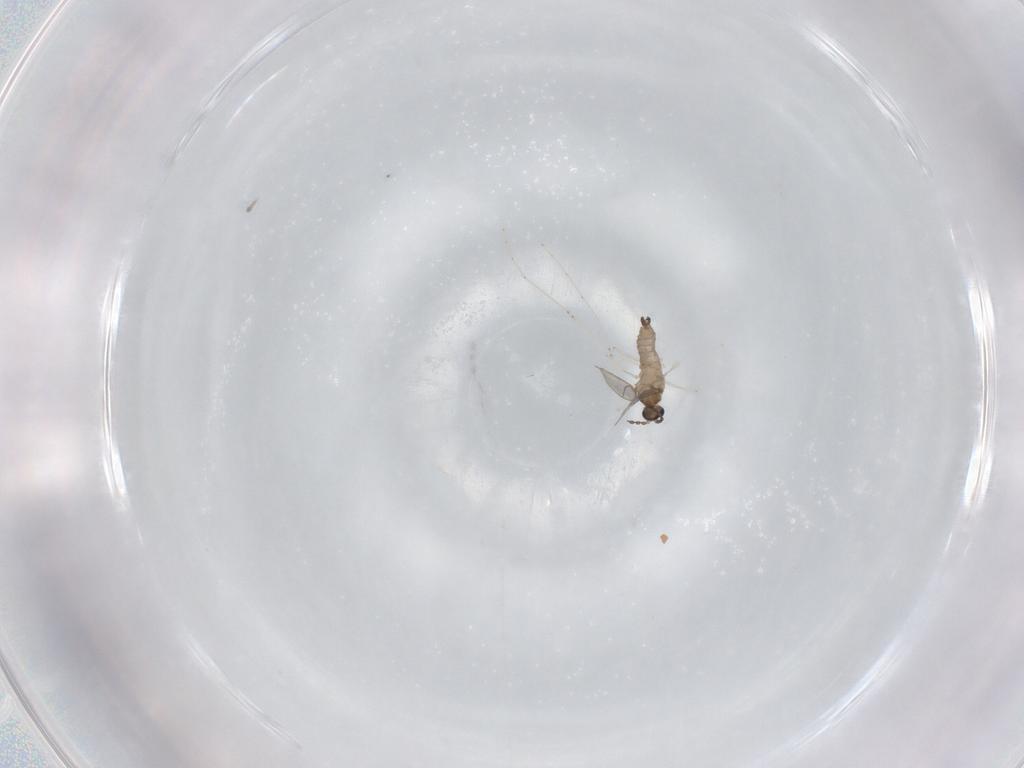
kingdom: Animalia
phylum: Arthropoda
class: Insecta
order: Diptera
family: Cecidomyiidae
